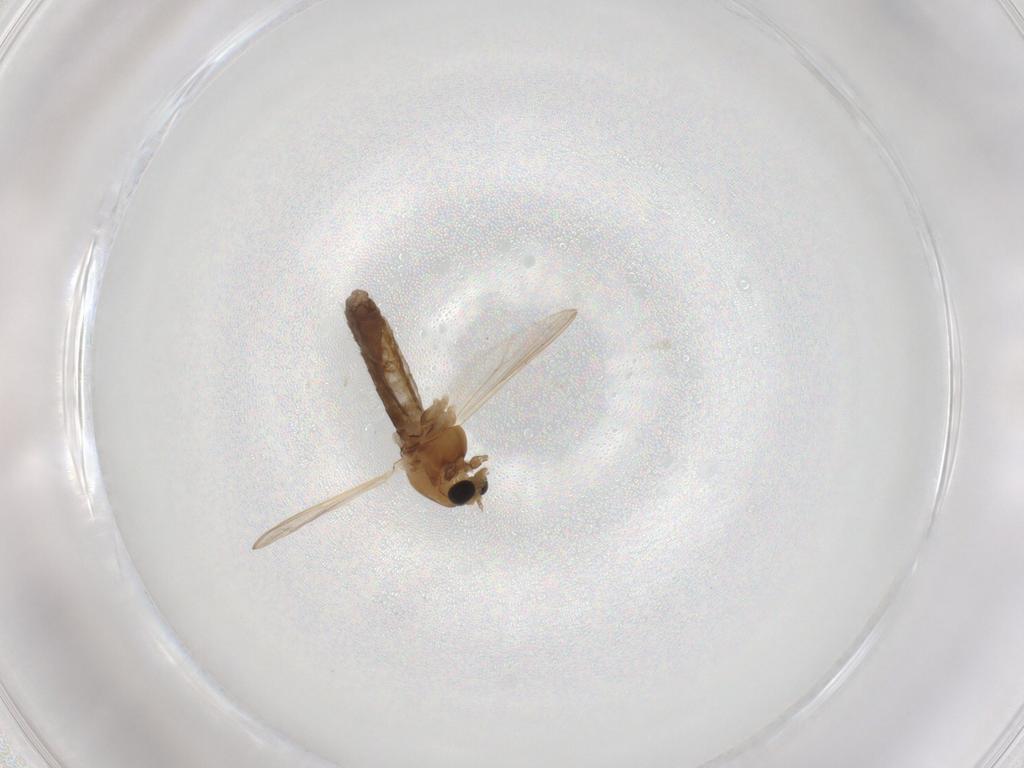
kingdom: Animalia
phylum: Arthropoda
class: Insecta
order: Diptera
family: Chironomidae
